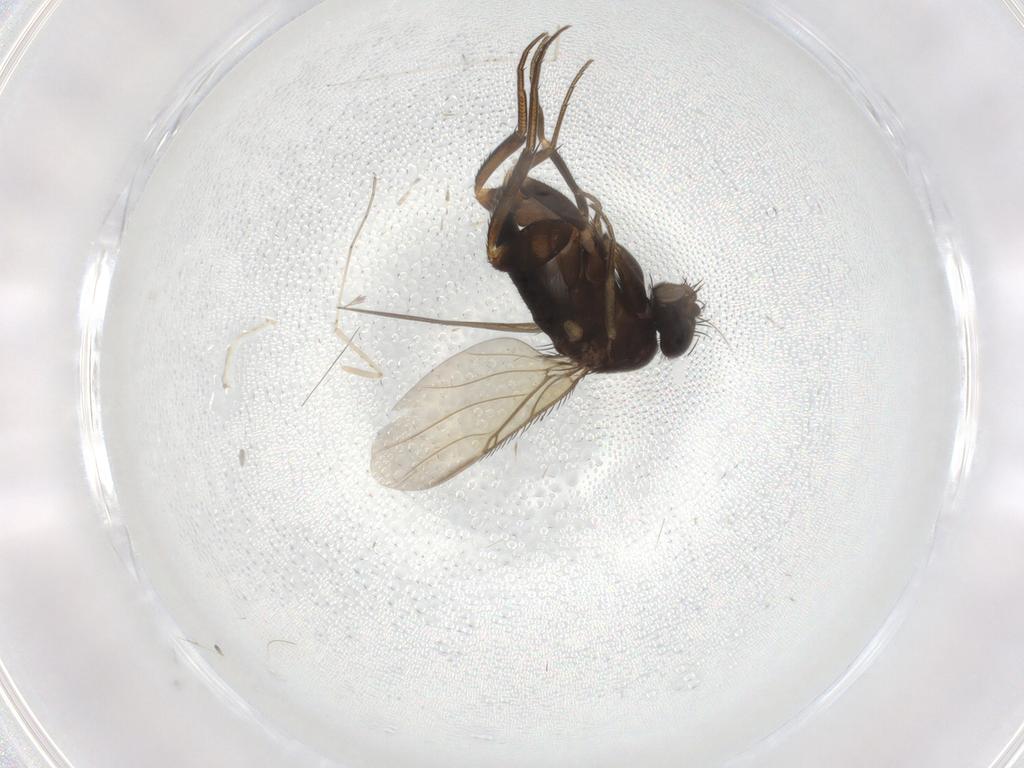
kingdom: Animalia
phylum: Arthropoda
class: Insecta
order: Diptera
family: Phoridae
